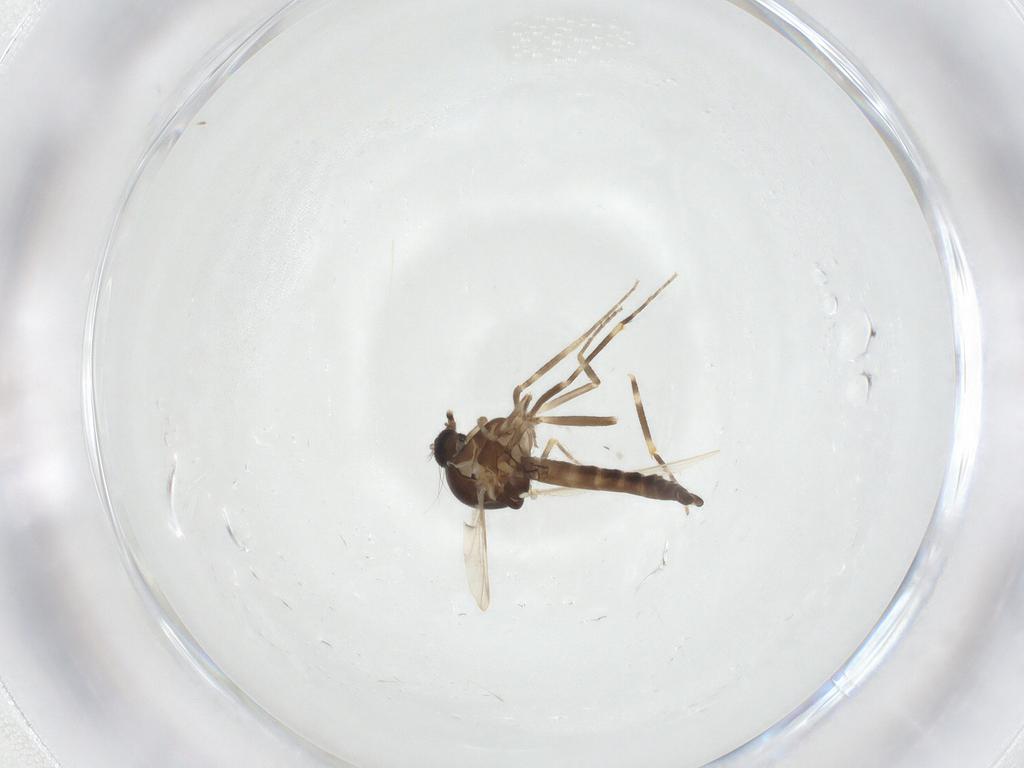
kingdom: Animalia
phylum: Arthropoda
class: Insecta
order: Diptera
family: Ceratopogonidae
